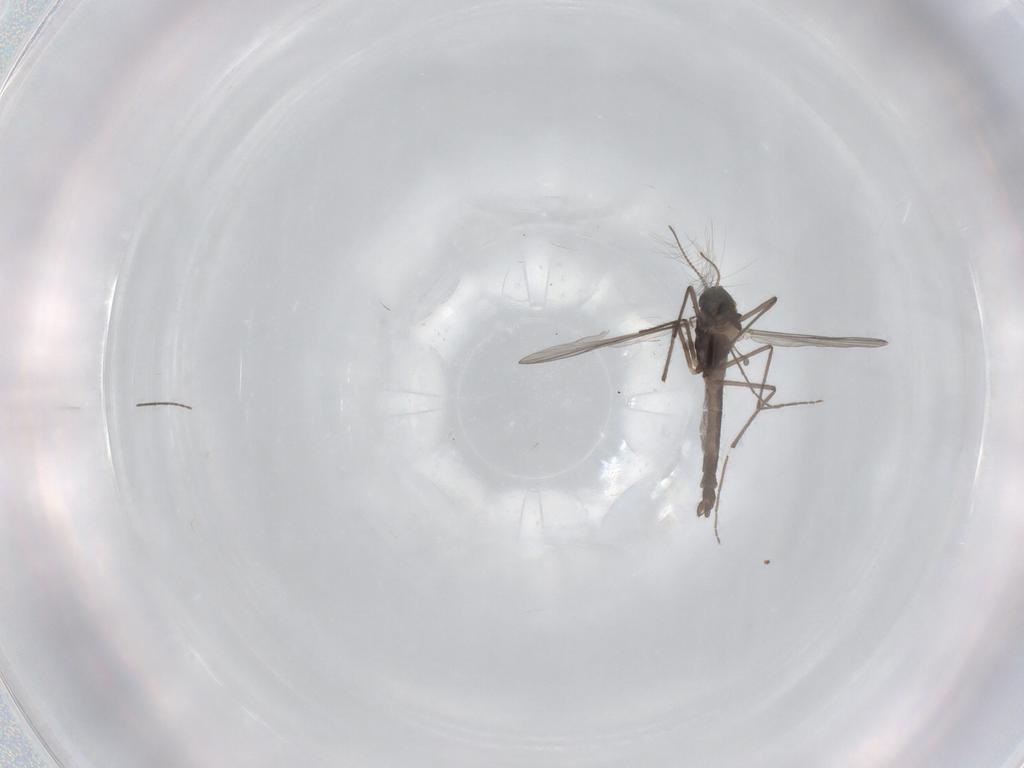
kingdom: Animalia
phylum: Arthropoda
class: Insecta
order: Diptera
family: Chironomidae
